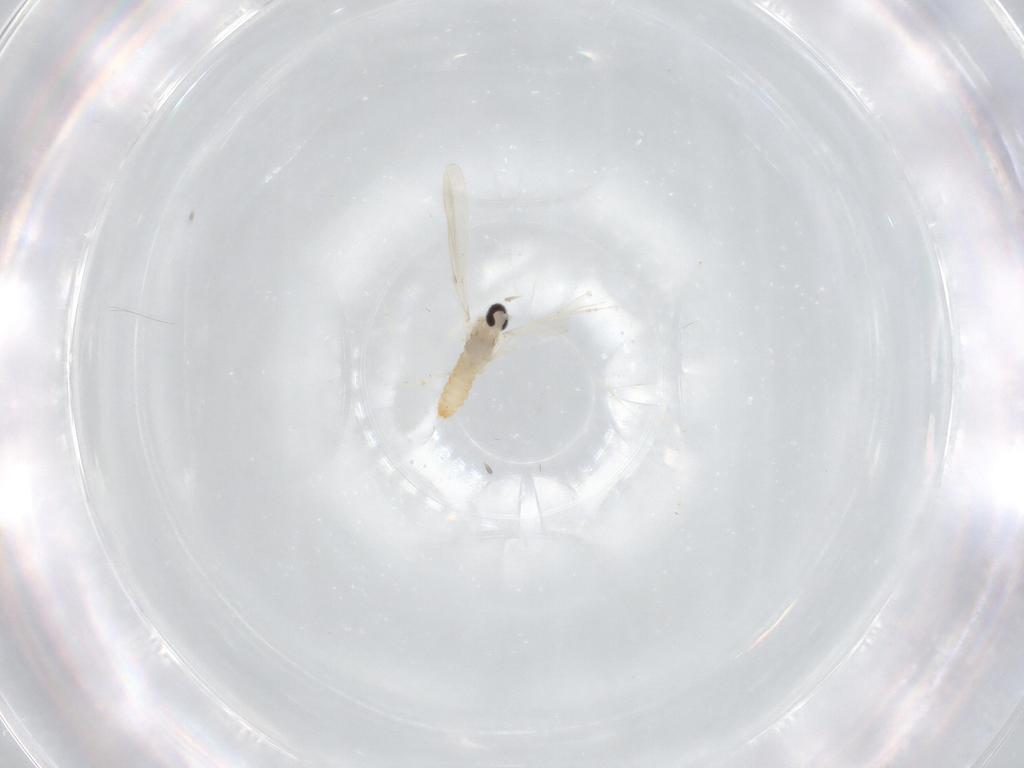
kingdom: Animalia
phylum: Arthropoda
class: Insecta
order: Diptera
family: Cecidomyiidae
